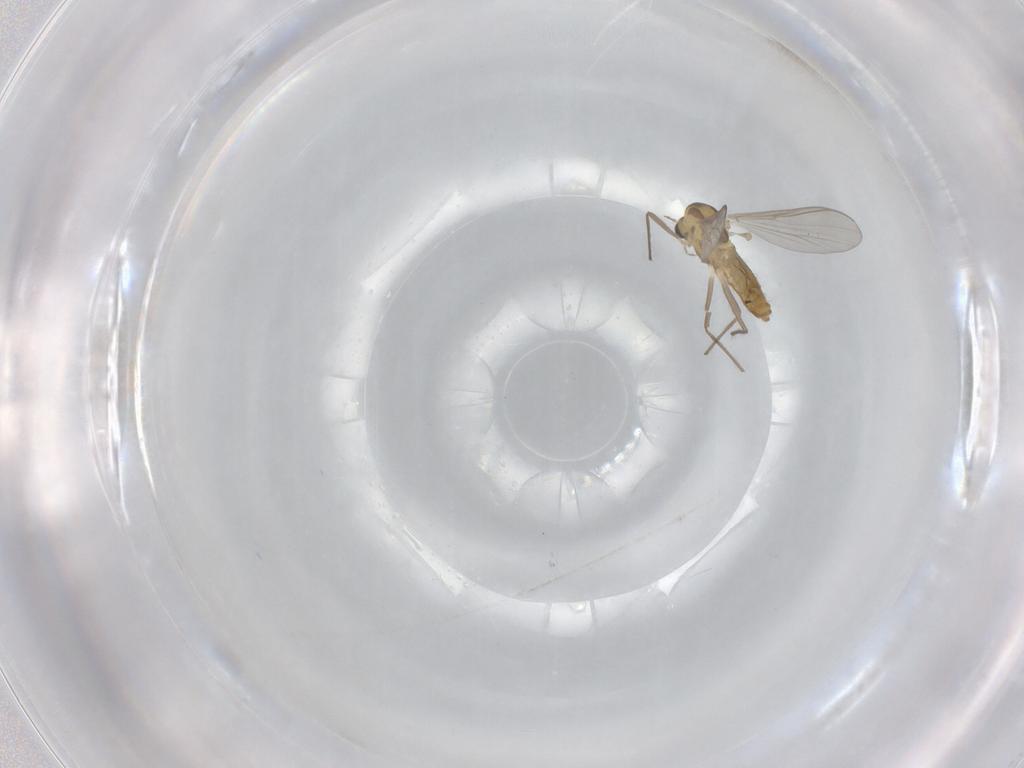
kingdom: Animalia
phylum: Arthropoda
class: Insecta
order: Diptera
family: Chironomidae
